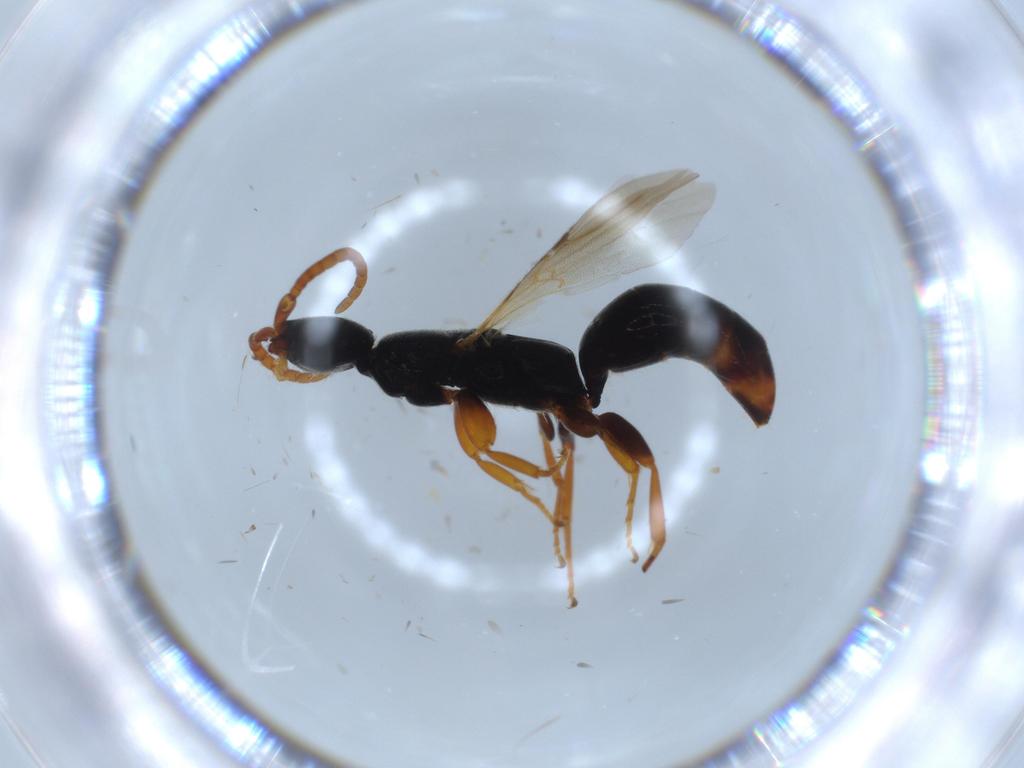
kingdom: Animalia
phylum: Arthropoda
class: Insecta
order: Hymenoptera
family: Bethylidae
